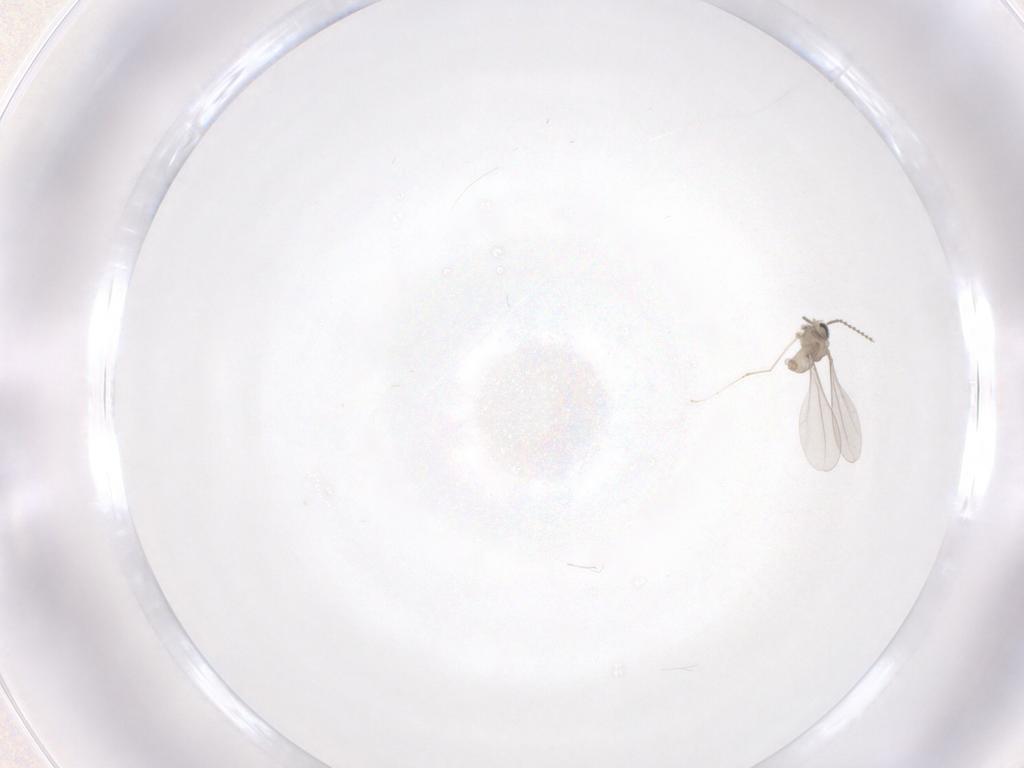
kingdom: Animalia
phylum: Arthropoda
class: Insecta
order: Diptera
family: Cecidomyiidae
